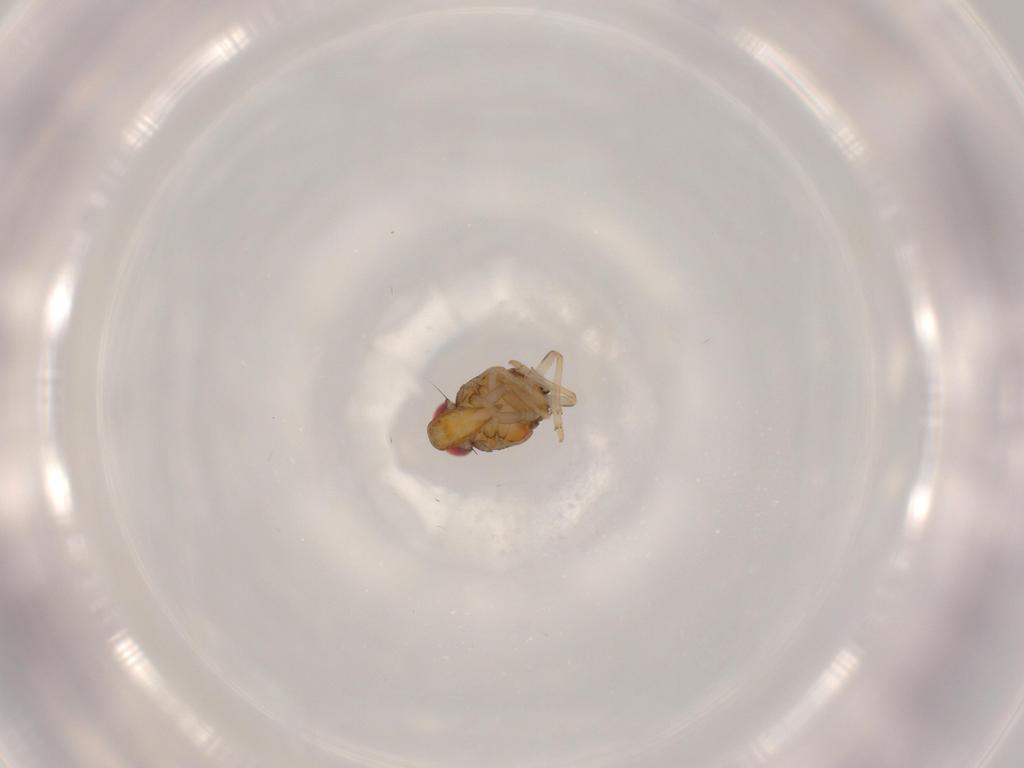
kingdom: Animalia
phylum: Arthropoda
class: Insecta
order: Hemiptera
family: Issidae
